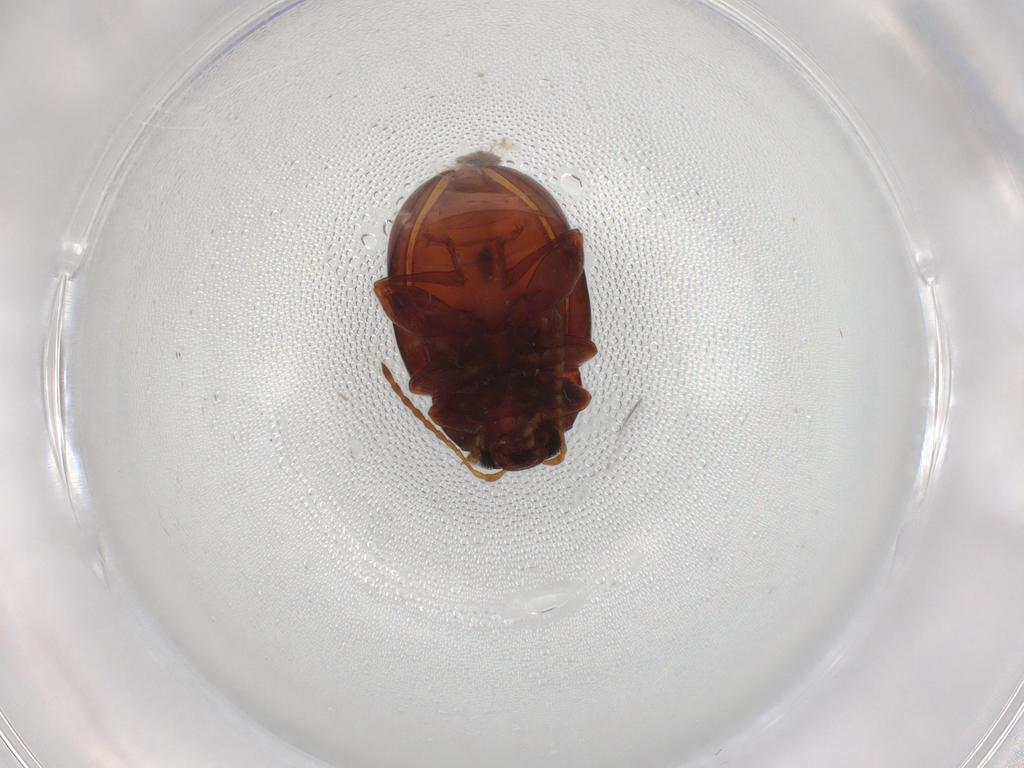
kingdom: Animalia
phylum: Arthropoda
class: Insecta
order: Coleoptera
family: Chrysomelidae
